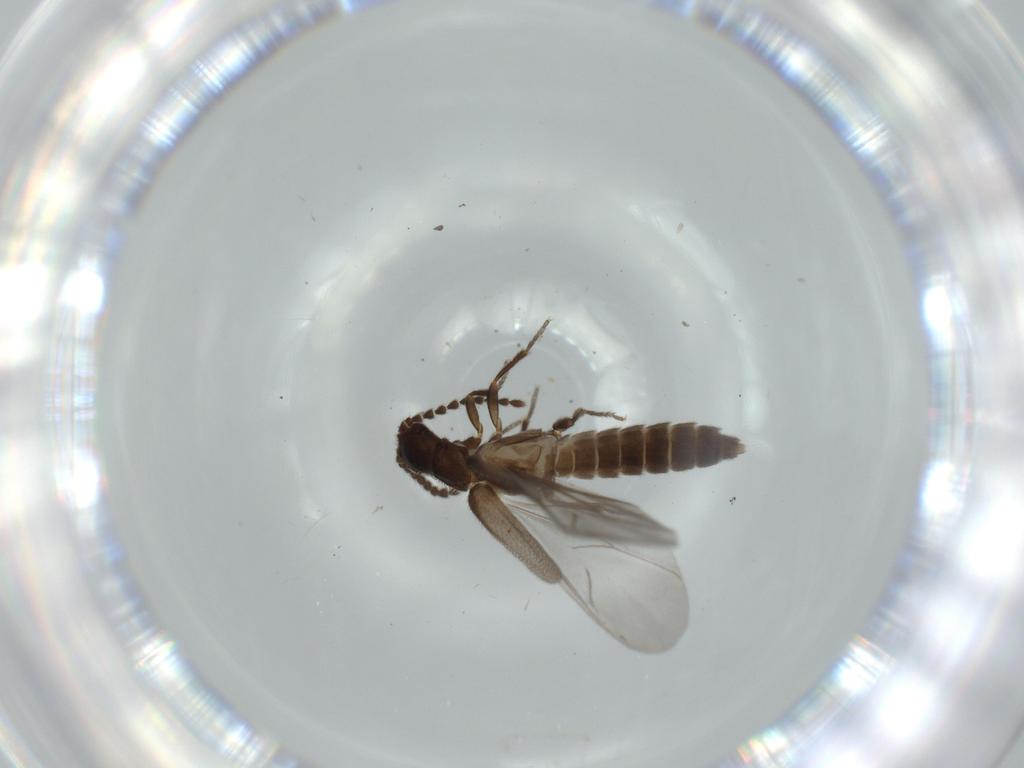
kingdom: Animalia
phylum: Arthropoda
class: Insecta
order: Coleoptera
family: Omethidae
